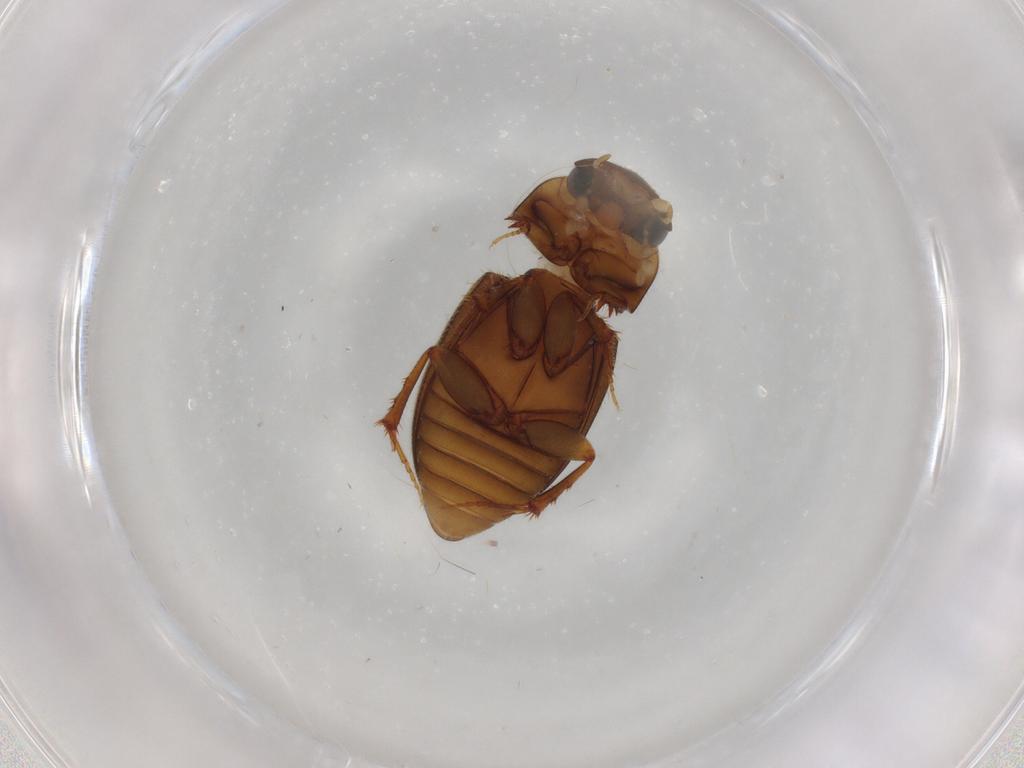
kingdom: Animalia
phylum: Arthropoda
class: Insecta
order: Coleoptera
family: Scarabaeidae
